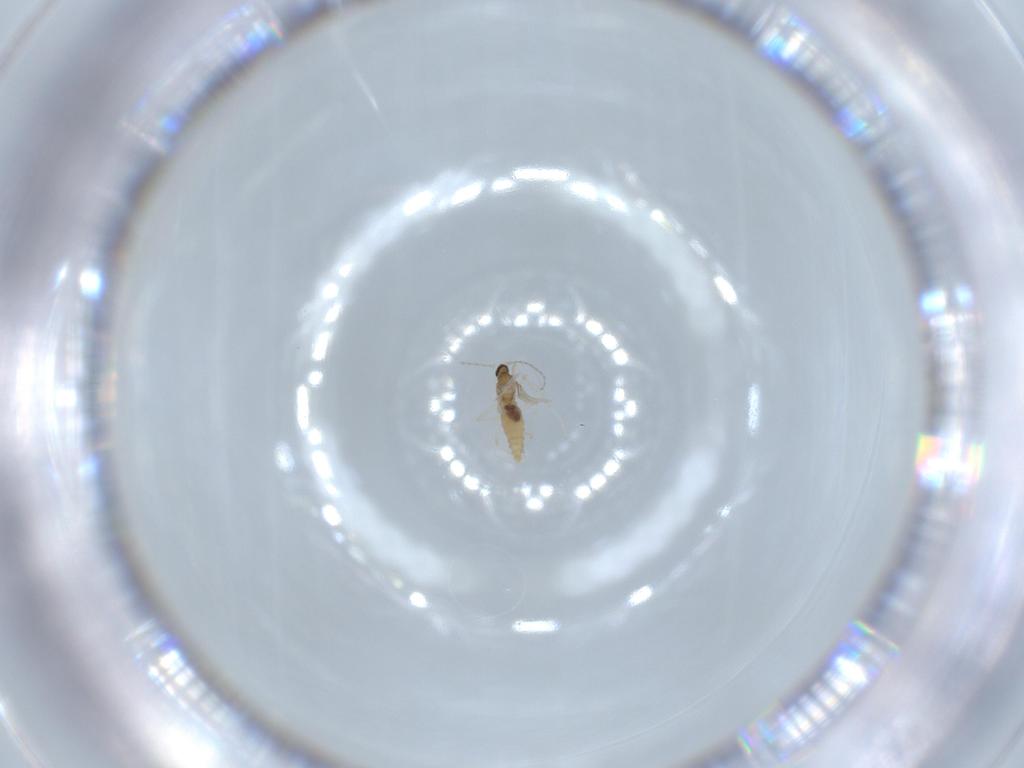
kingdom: Animalia
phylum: Arthropoda
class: Insecta
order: Diptera
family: Cecidomyiidae
